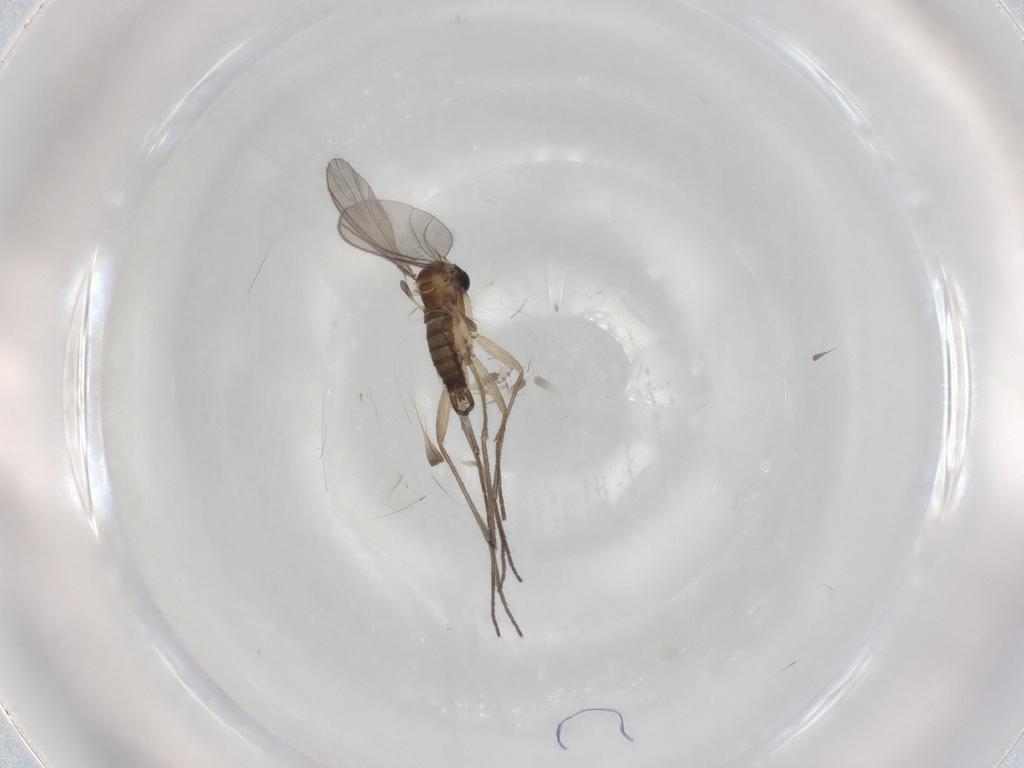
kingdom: Animalia
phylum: Arthropoda
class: Insecta
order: Diptera
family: Sciaridae
